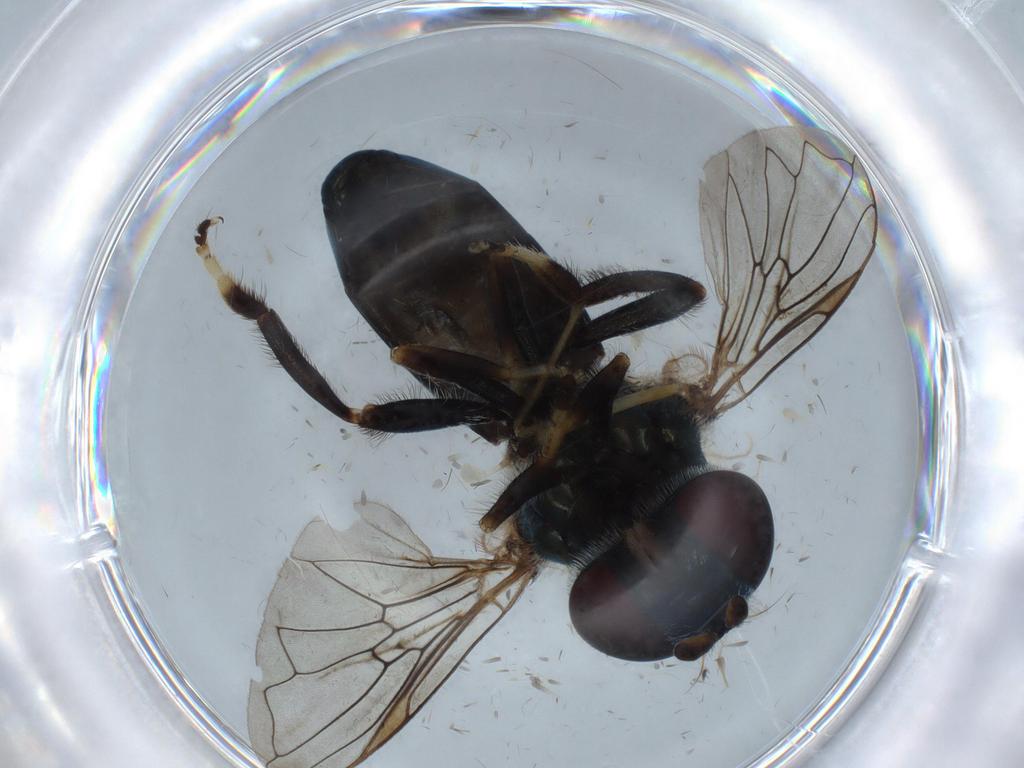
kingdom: Animalia
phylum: Arthropoda
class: Insecta
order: Diptera
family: Syrphidae
